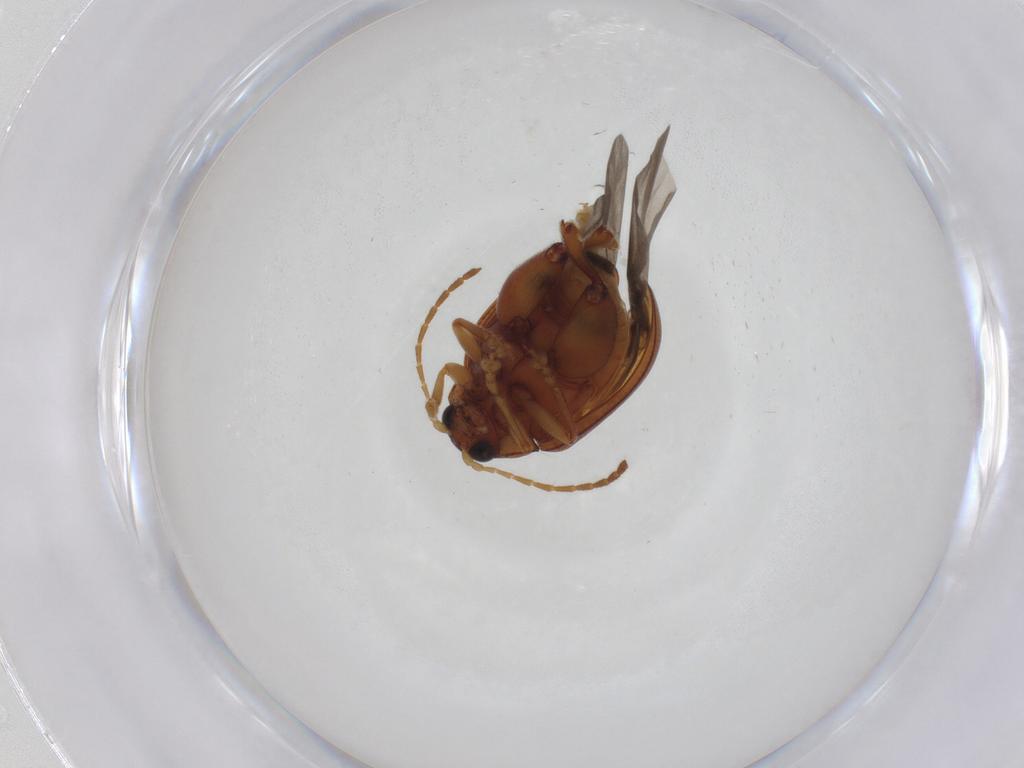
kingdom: Animalia
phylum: Arthropoda
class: Insecta
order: Coleoptera
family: Chrysomelidae
